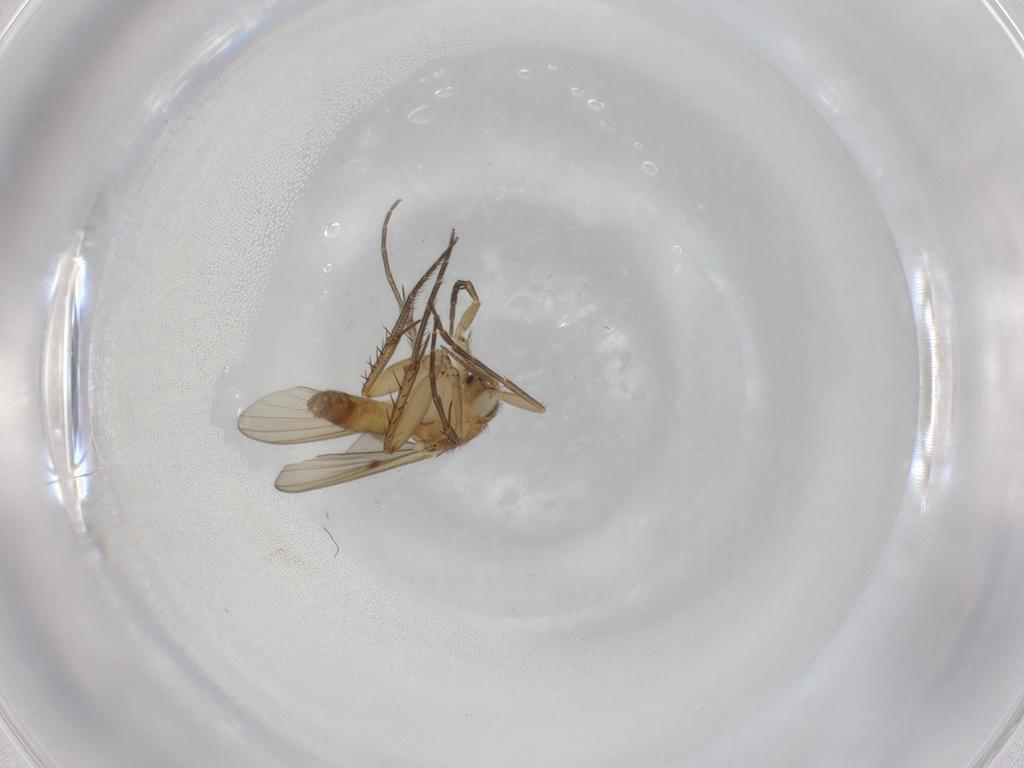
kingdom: Animalia
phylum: Arthropoda
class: Insecta
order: Diptera
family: Mycetophilidae
